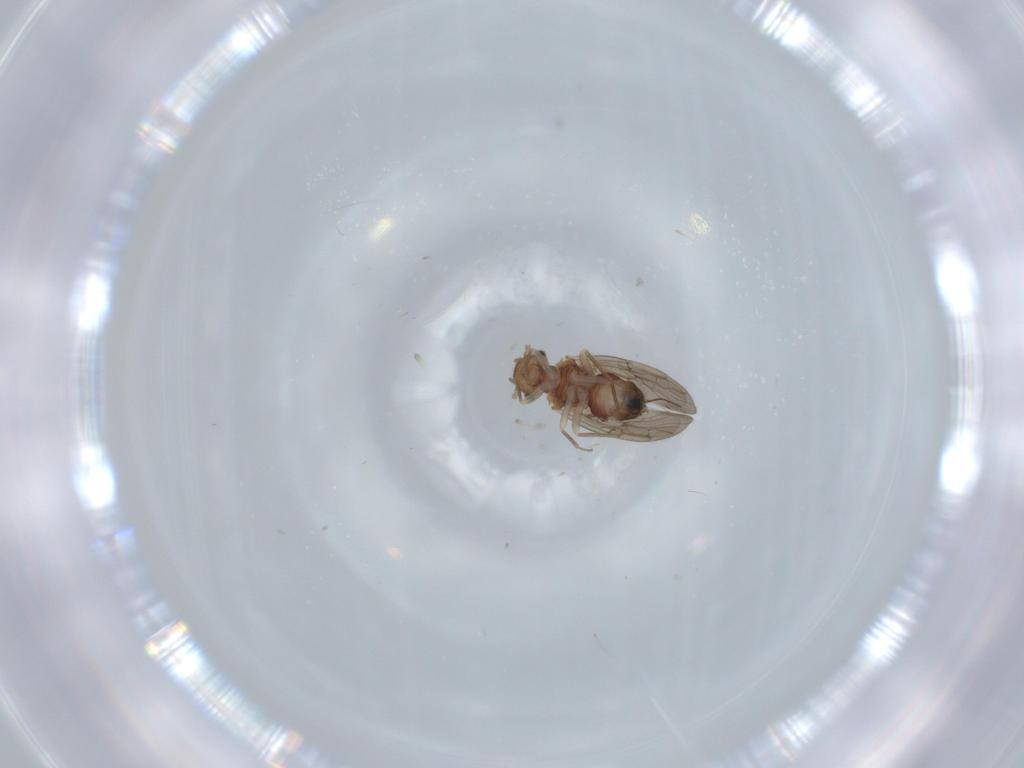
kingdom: Animalia
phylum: Arthropoda
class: Insecta
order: Psocodea
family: Ectopsocidae
